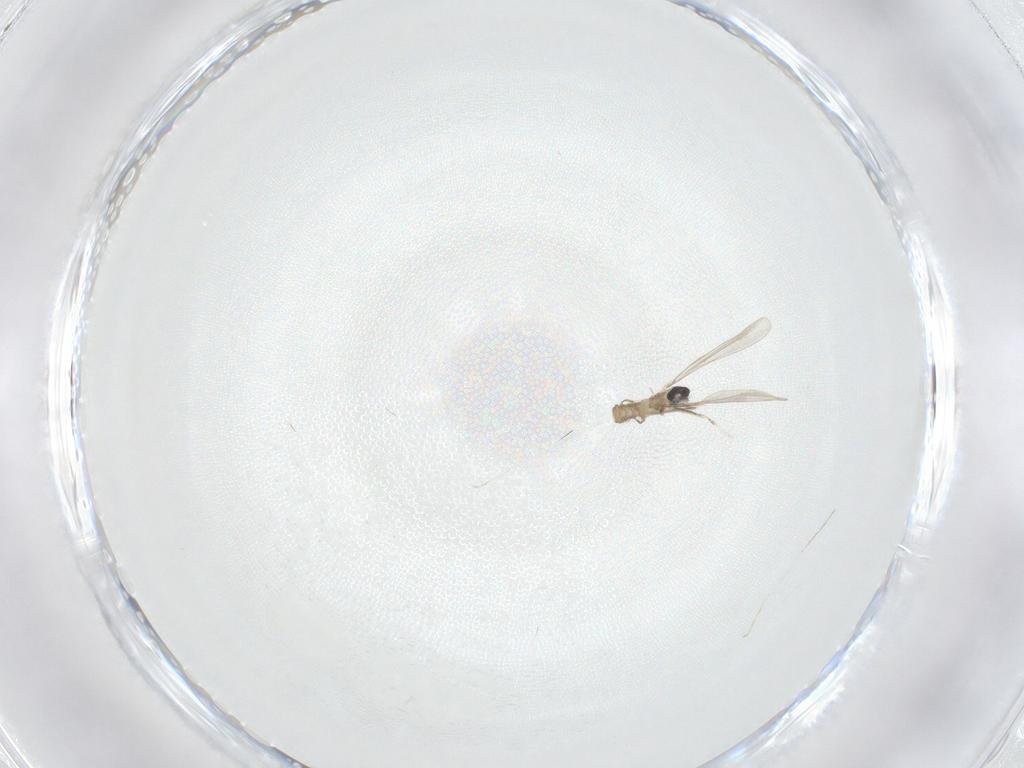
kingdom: Animalia
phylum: Arthropoda
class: Insecta
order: Diptera
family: Cecidomyiidae
